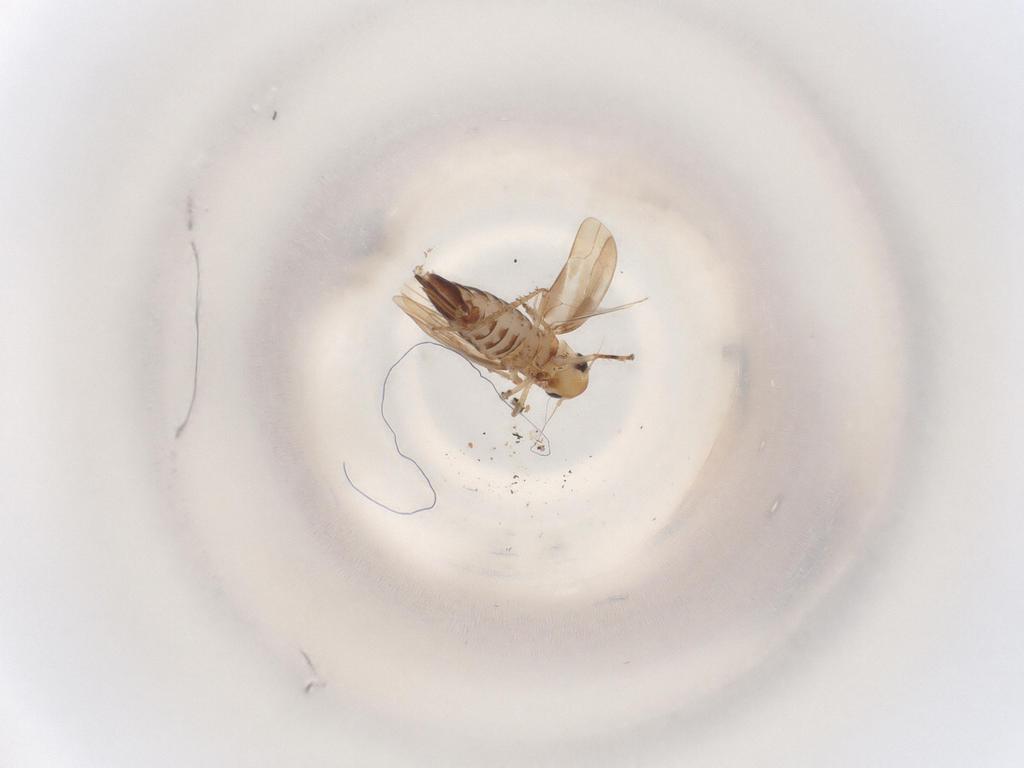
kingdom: Animalia
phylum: Arthropoda
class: Insecta
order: Hemiptera
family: Cicadellidae
